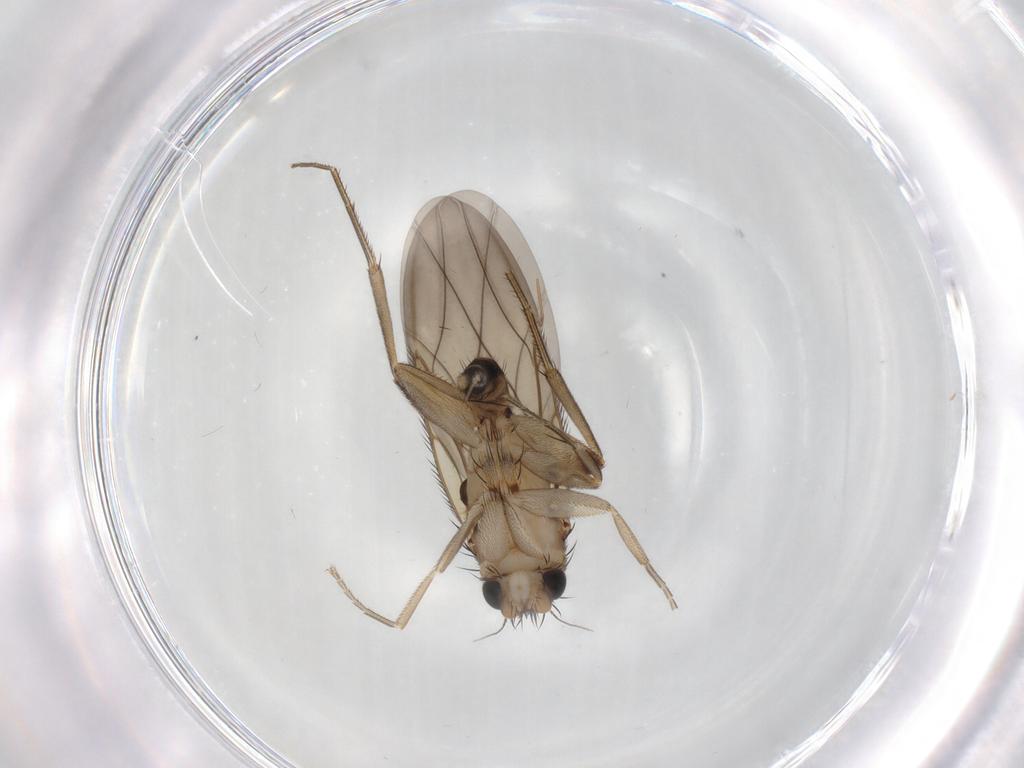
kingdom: Animalia
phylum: Arthropoda
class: Insecta
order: Diptera
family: Phoridae
